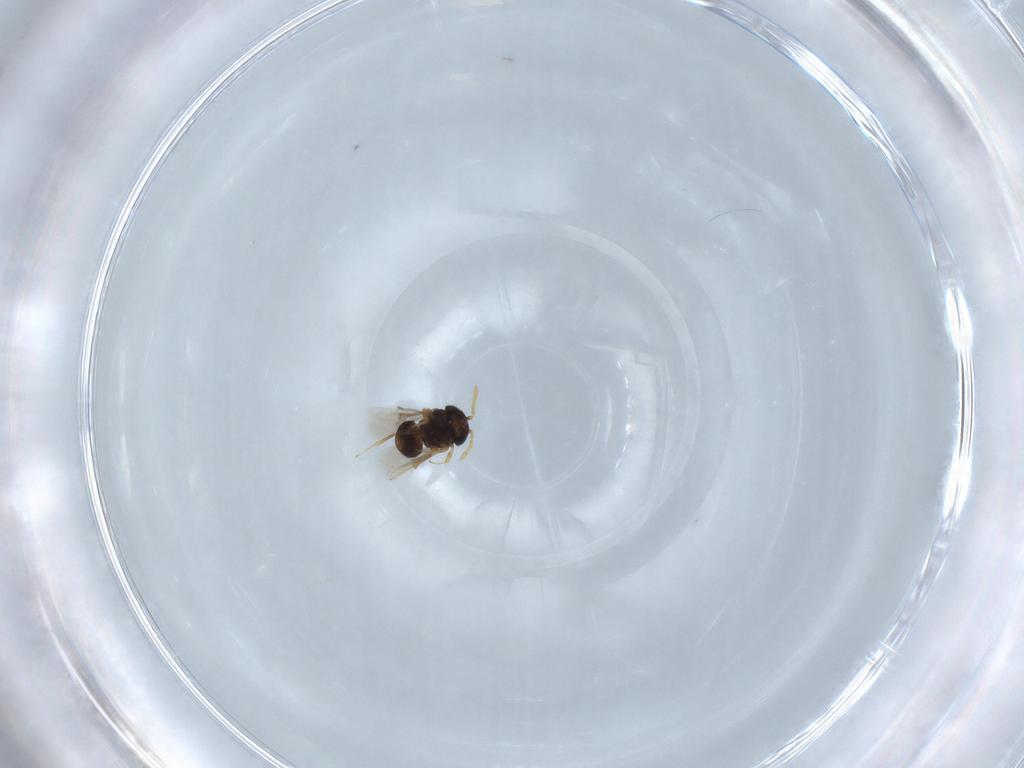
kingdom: Animalia
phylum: Arthropoda
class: Insecta
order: Hymenoptera
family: Scelionidae
